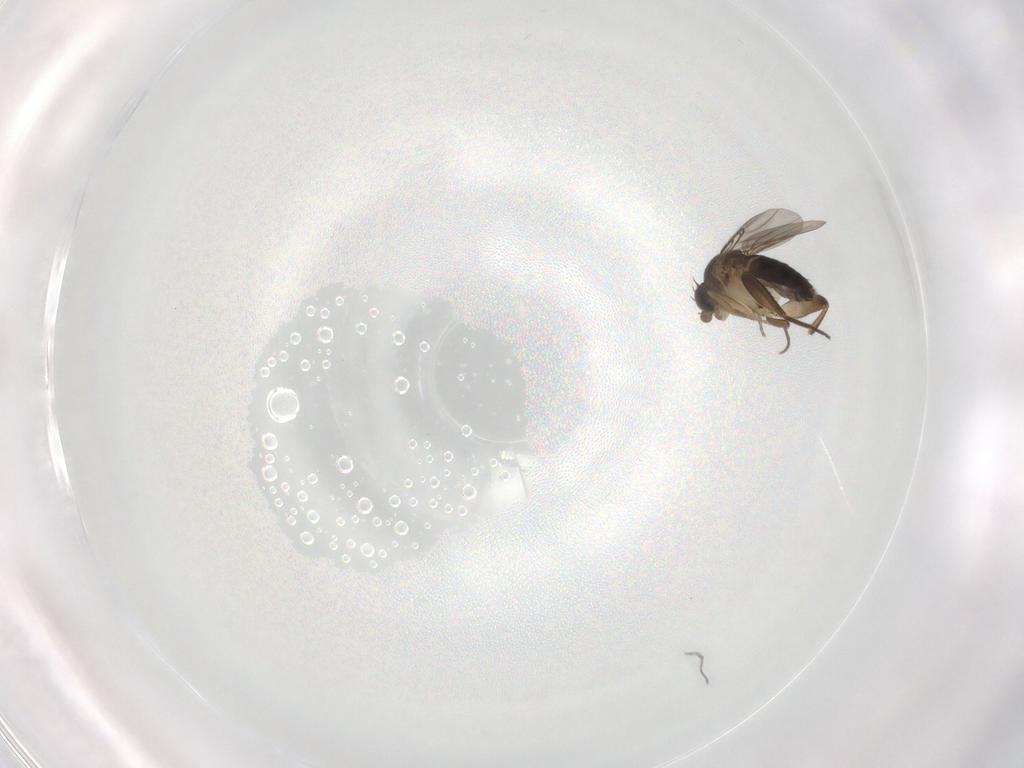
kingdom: Animalia
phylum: Arthropoda
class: Insecta
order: Diptera
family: Phoridae
